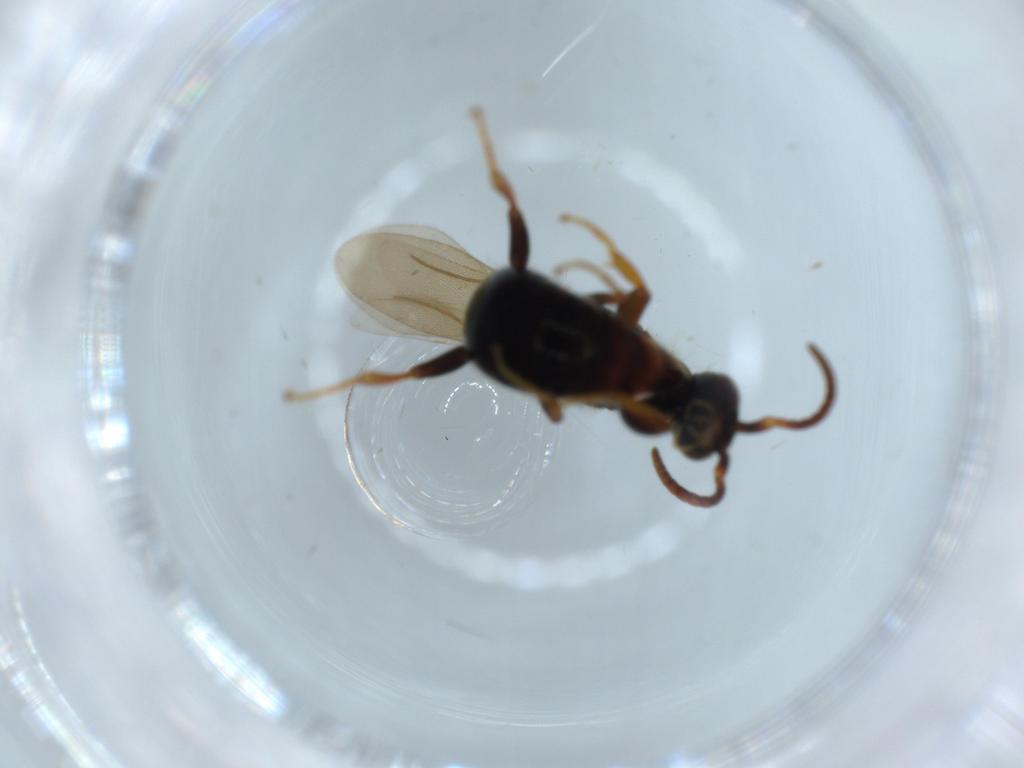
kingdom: Animalia
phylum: Arthropoda
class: Insecta
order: Hymenoptera
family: Bethylidae
